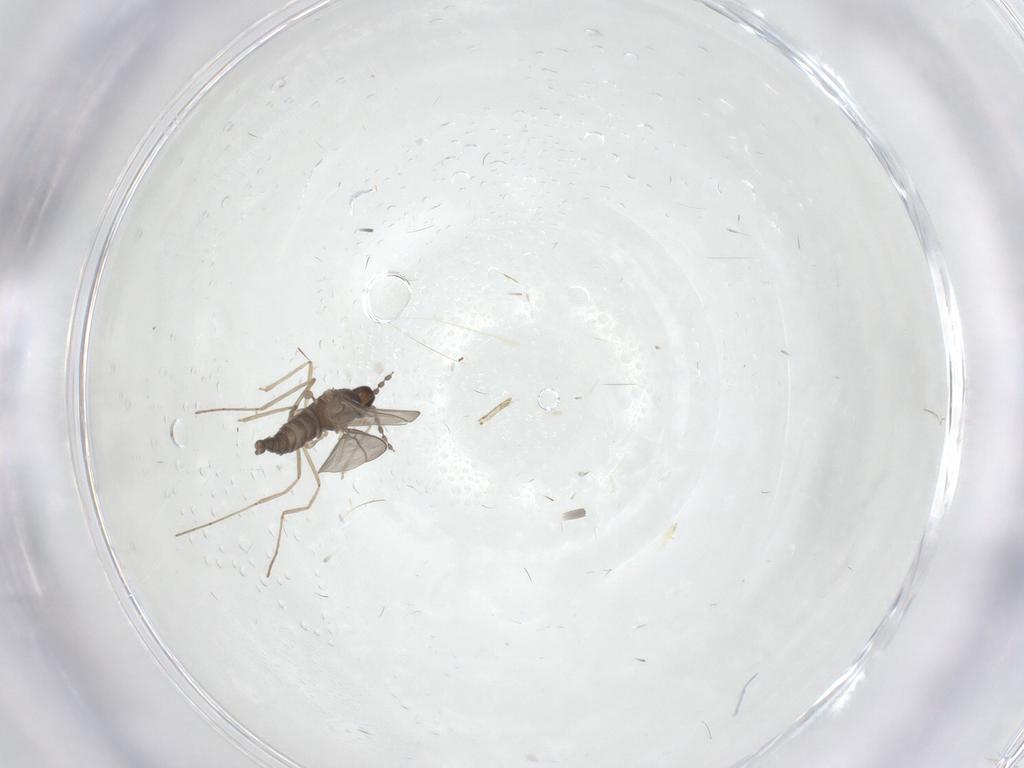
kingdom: Animalia
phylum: Arthropoda
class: Insecta
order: Diptera
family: Cecidomyiidae
